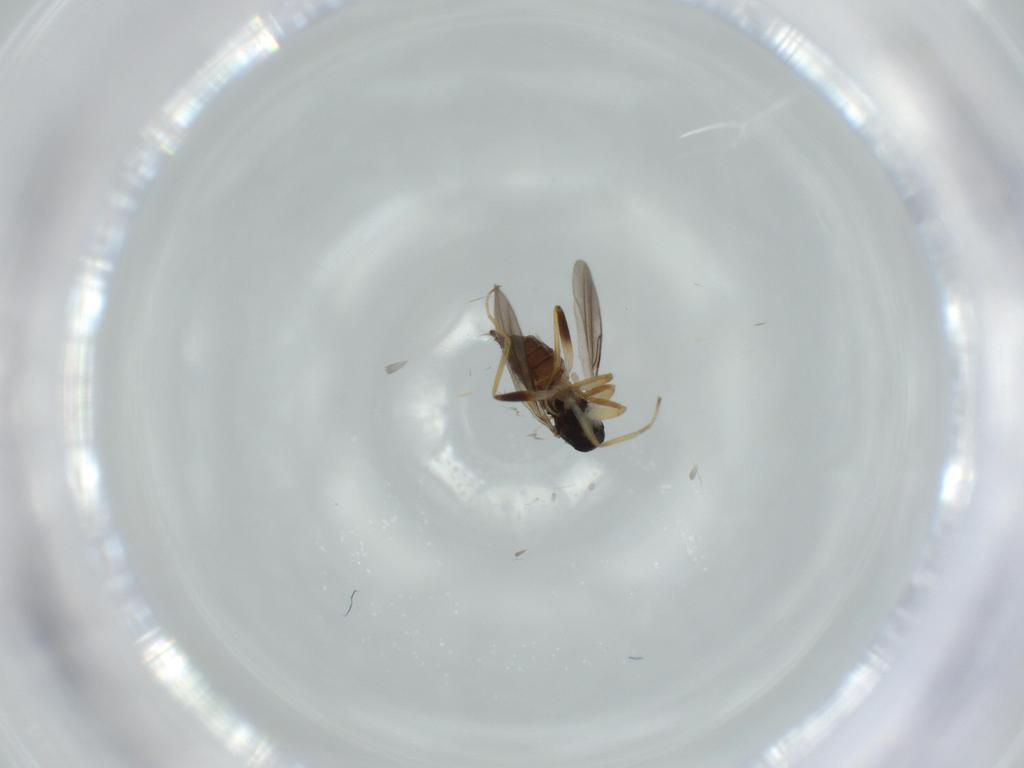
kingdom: Animalia
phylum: Arthropoda
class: Insecta
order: Diptera
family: Hybotidae
